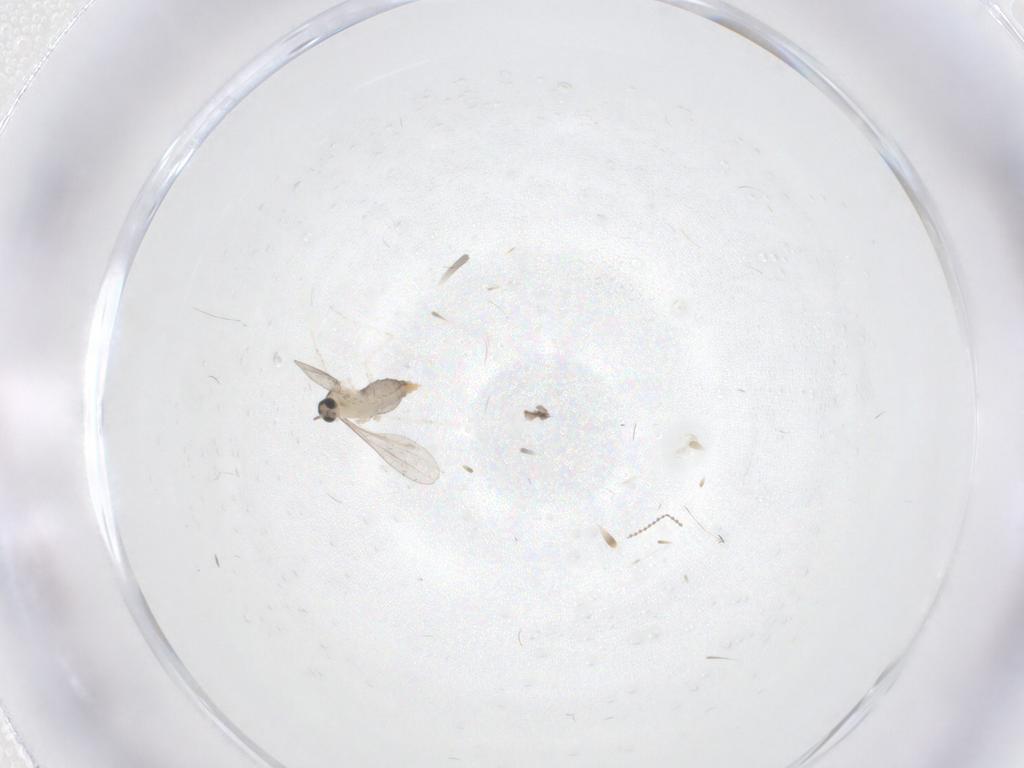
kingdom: Animalia
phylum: Arthropoda
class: Insecta
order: Diptera
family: Cecidomyiidae
